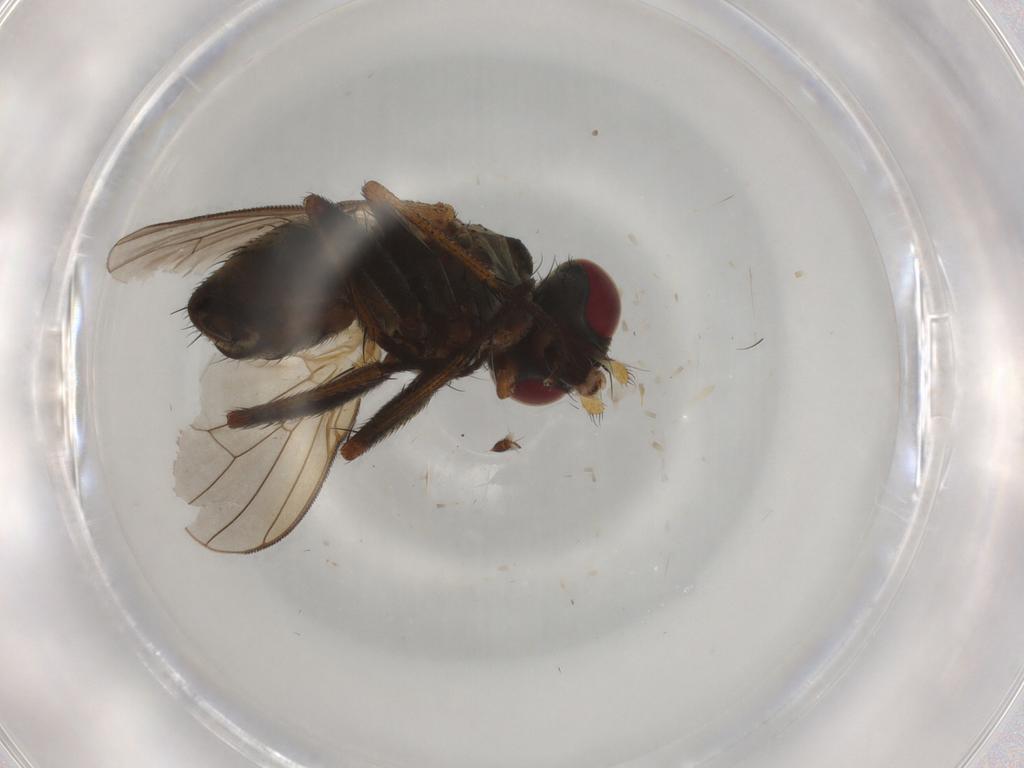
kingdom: Animalia
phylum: Arthropoda
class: Insecta
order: Diptera
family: Muscidae
